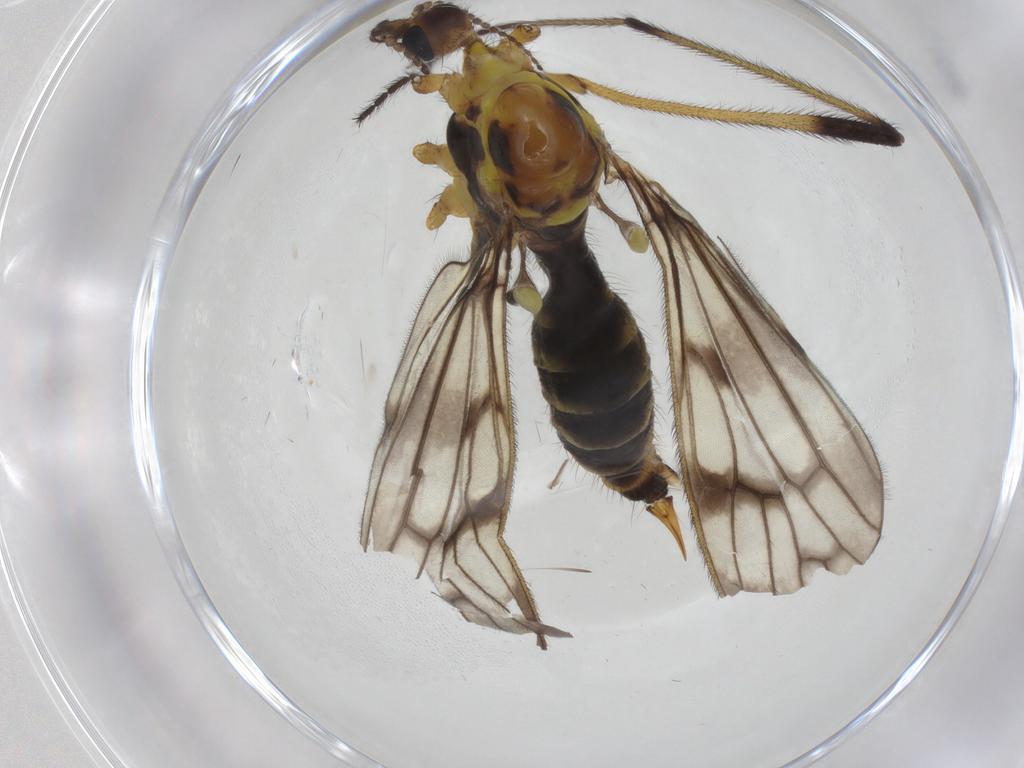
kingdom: Animalia
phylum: Arthropoda
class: Insecta
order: Diptera
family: Limoniidae
